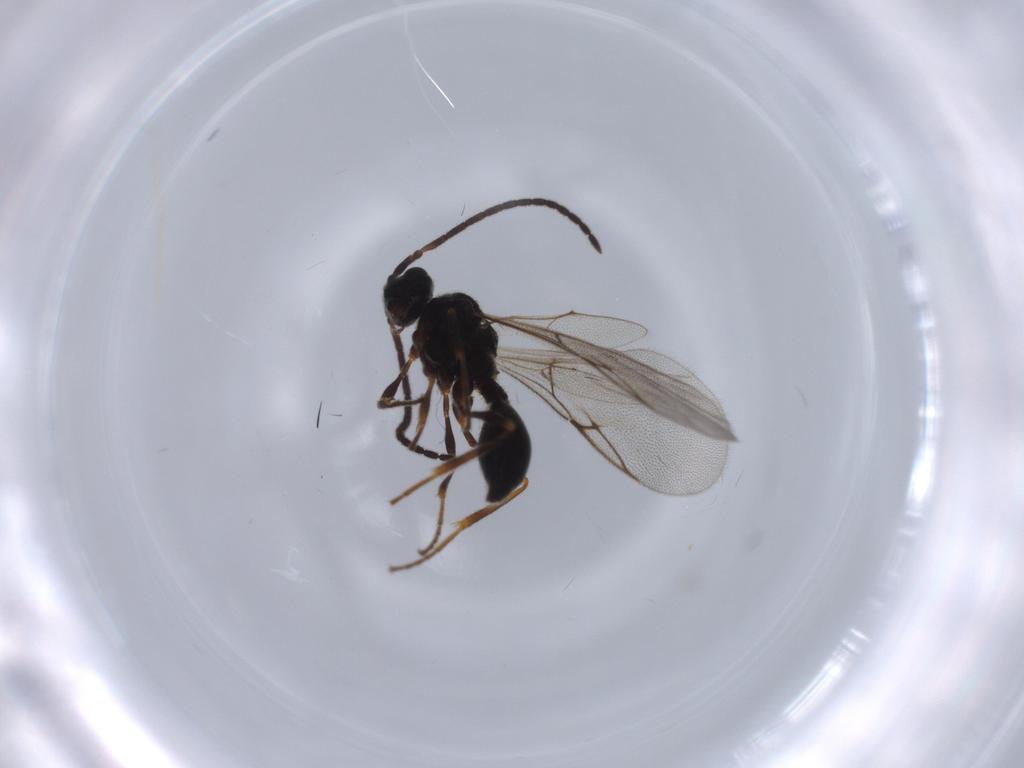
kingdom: Animalia
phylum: Arthropoda
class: Insecta
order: Hymenoptera
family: Diapriidae
